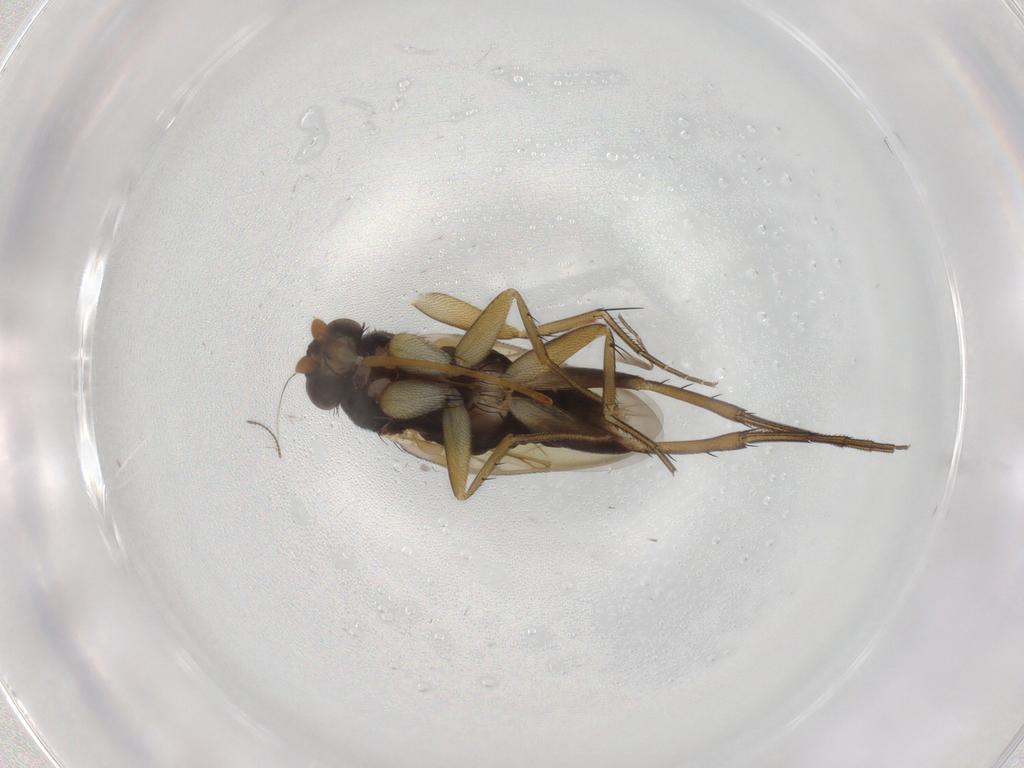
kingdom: Animalia
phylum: Arthropoda
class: Insecta
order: Diptera
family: Phoridae
